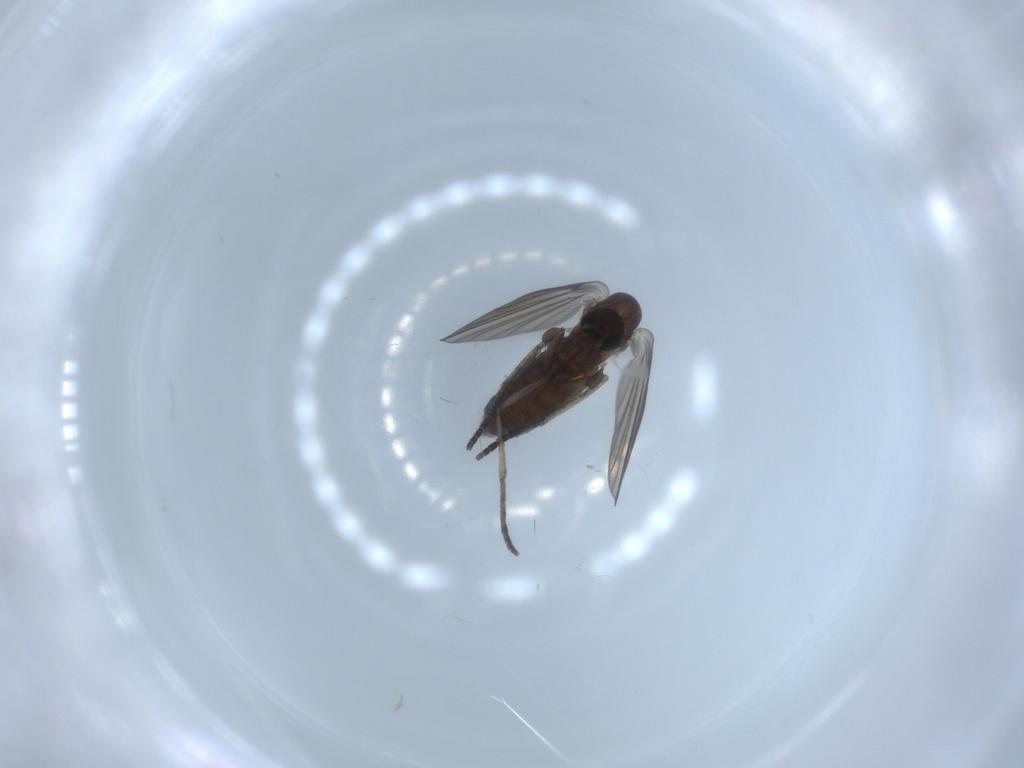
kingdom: Animalia
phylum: Arthropoda
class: Insecta
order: Diptera
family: Psychodidae
